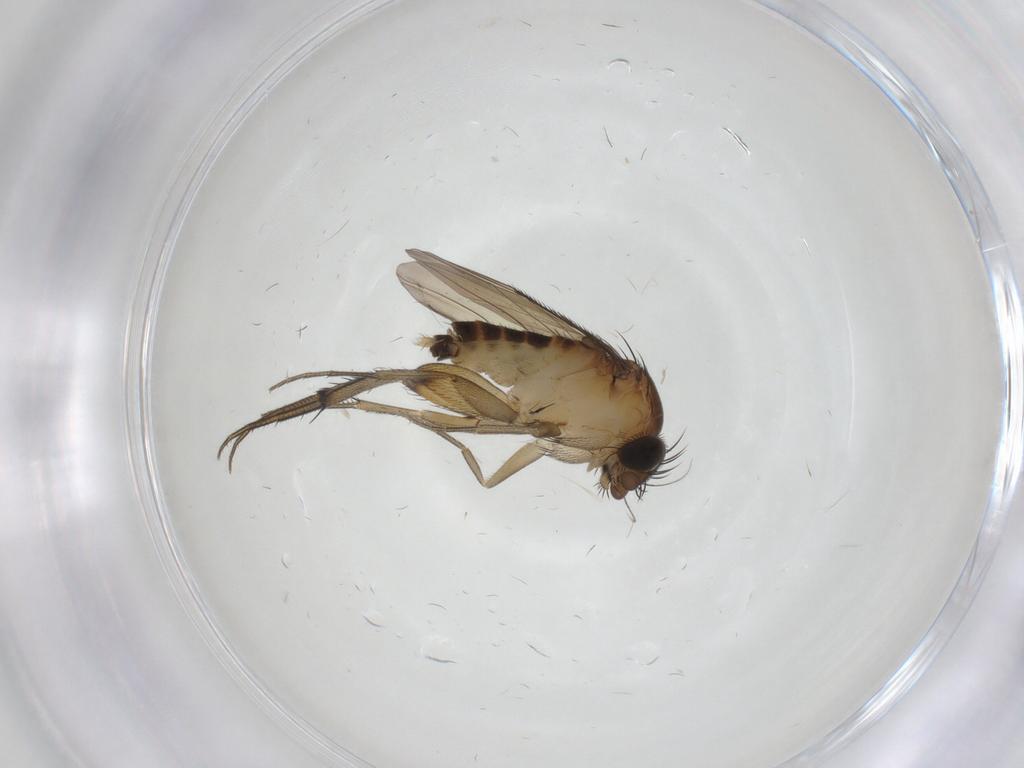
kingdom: Animalia
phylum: Arthropoda
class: Insecta
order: Diptera
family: Phoridae
